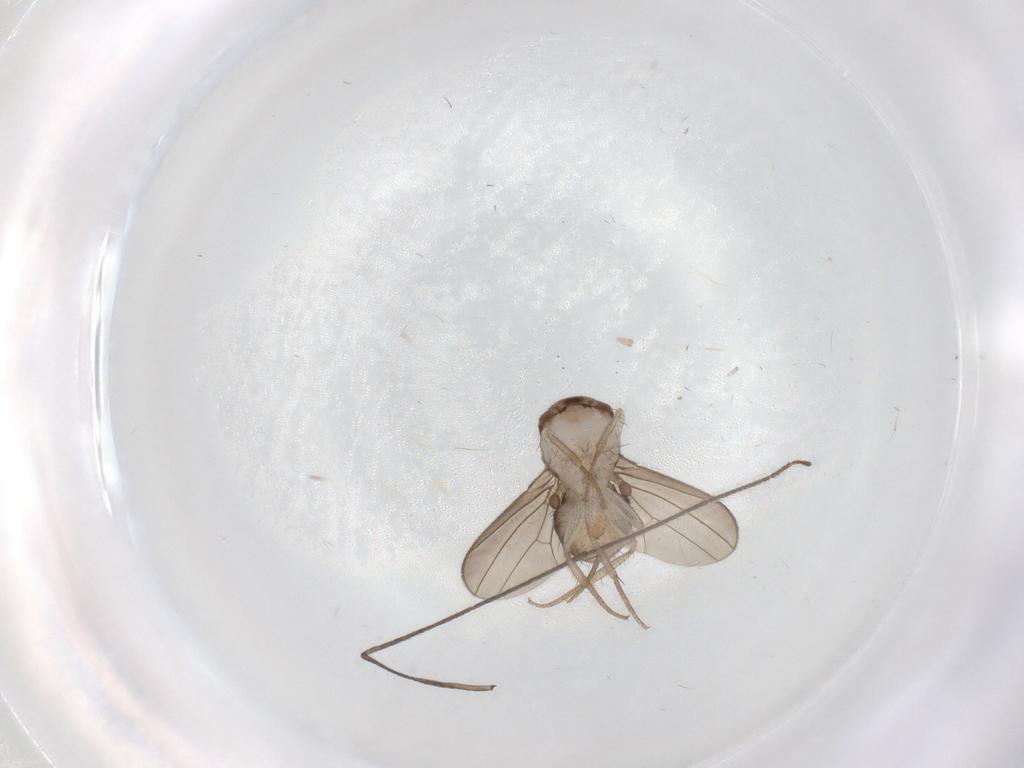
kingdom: Animalia
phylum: Arthropoda
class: Insecta
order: Diptera
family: Drosophilidae
